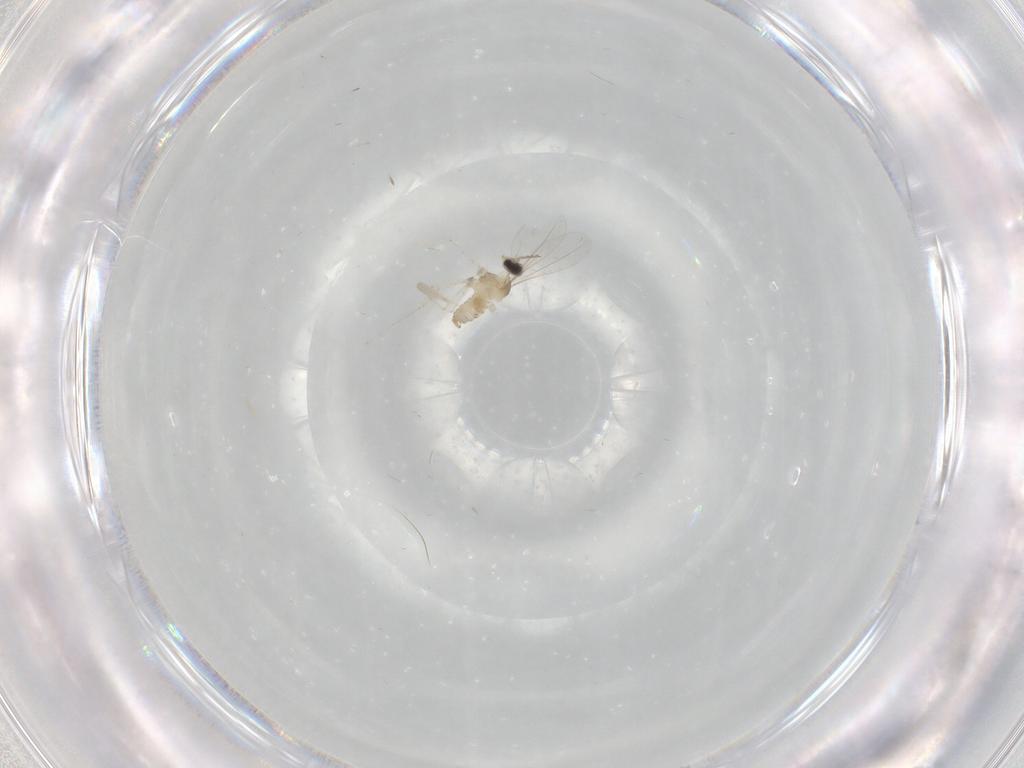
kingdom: Animalia
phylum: Arthropoda
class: Insecta
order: Diptera
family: Cecidomyiidae
